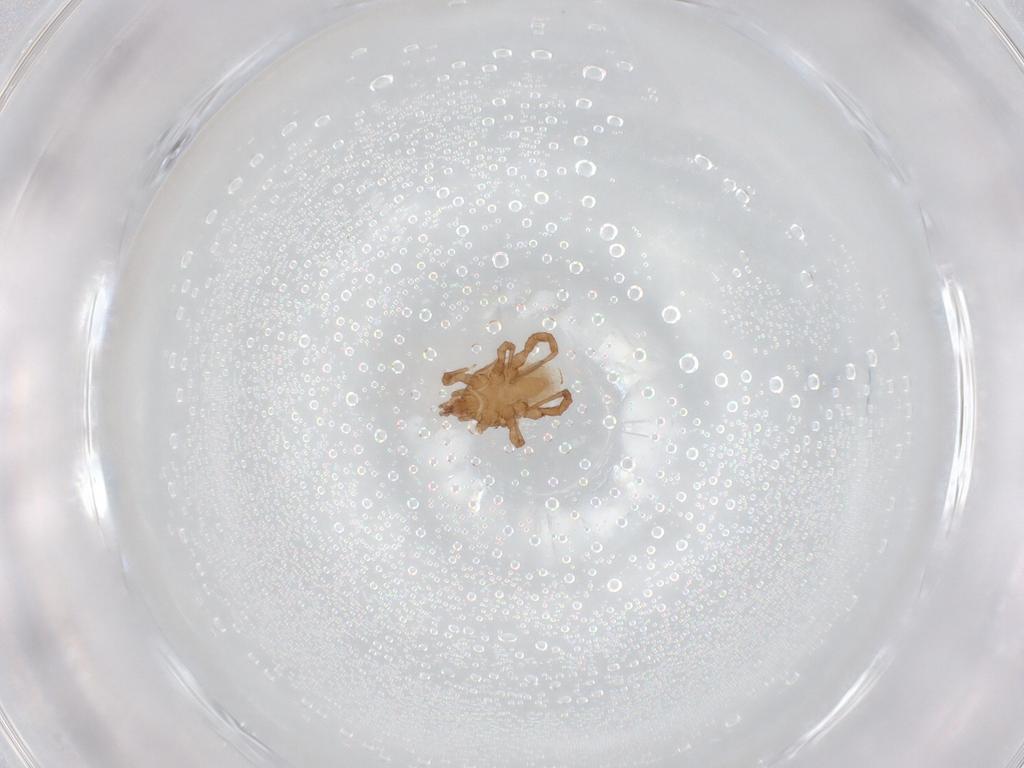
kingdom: Animalia
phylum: Arthropoda
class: Arachnida
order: Mesostigmata
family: Macrochelidae
